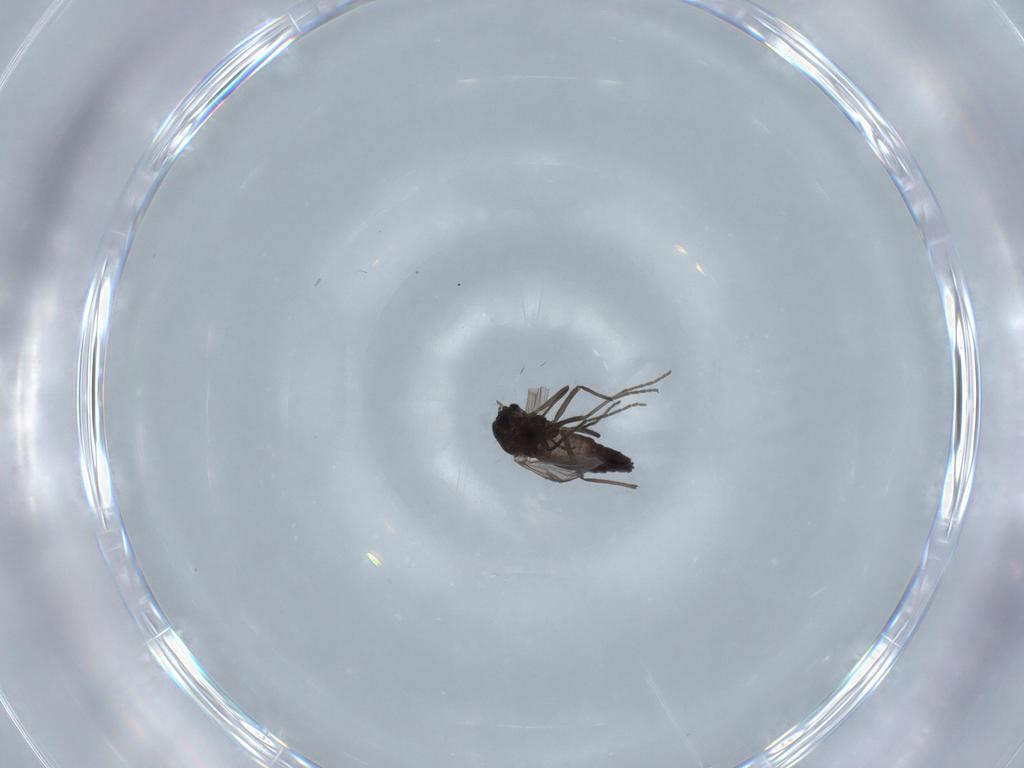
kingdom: Animalia
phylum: Arthropoda
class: Insecta
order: Diptera
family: Chironomidae
